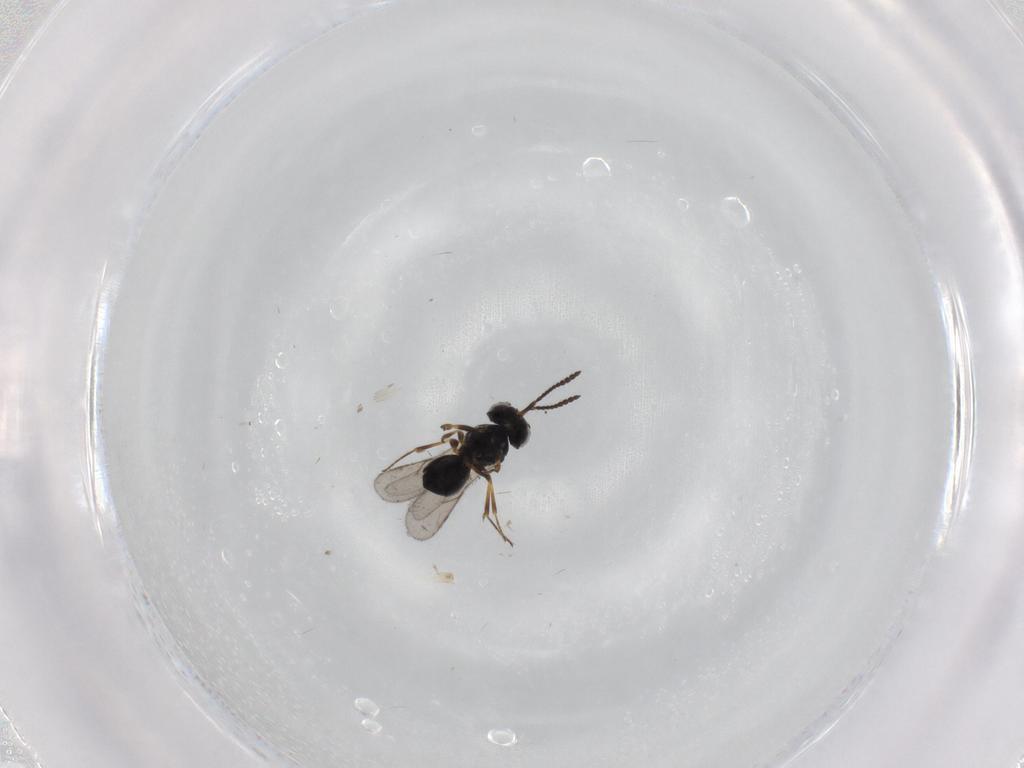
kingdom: Animalia
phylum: Arthropoda
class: Insecta
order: Hymenoptera
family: Scelionidae
